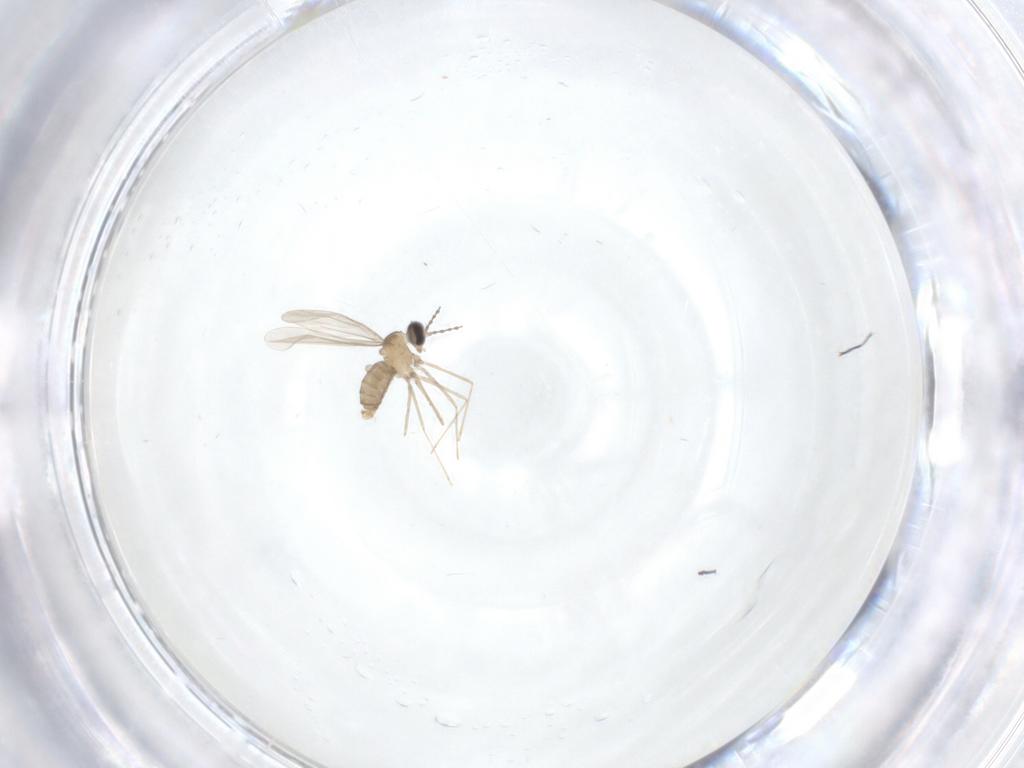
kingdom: Animalia
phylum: Arthropoda
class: Insecta
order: Diptera
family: Cecidomyiidae
